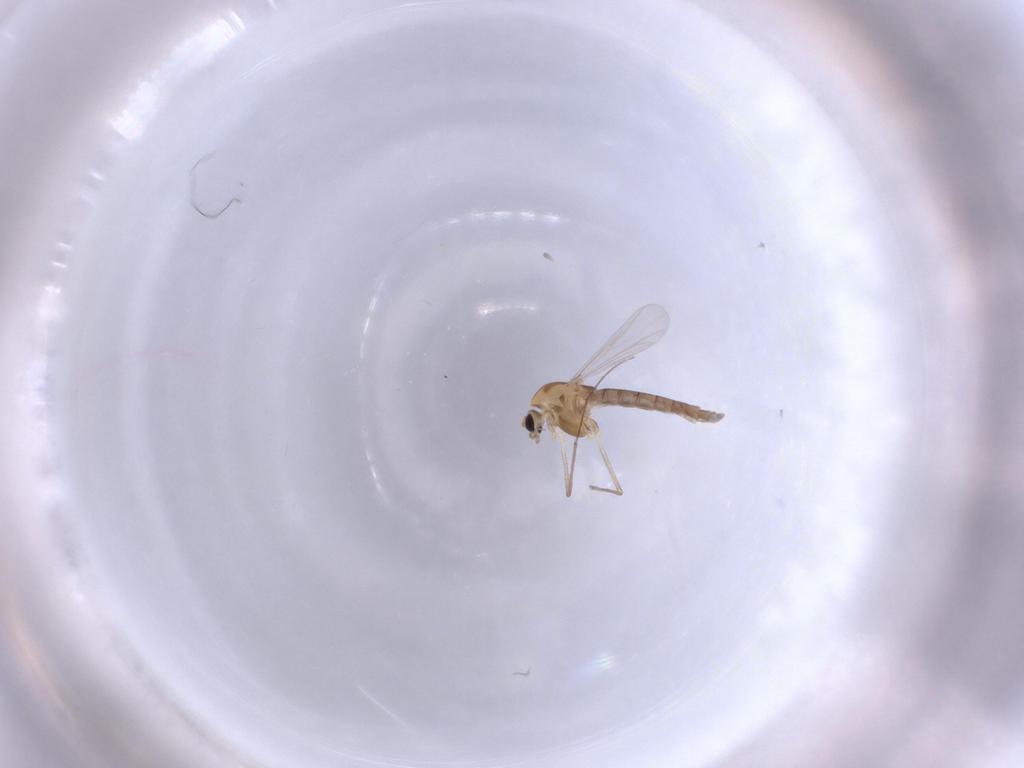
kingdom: Animalia
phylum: Arthropoda
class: Insecta
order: Diptera
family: Chironomidae
